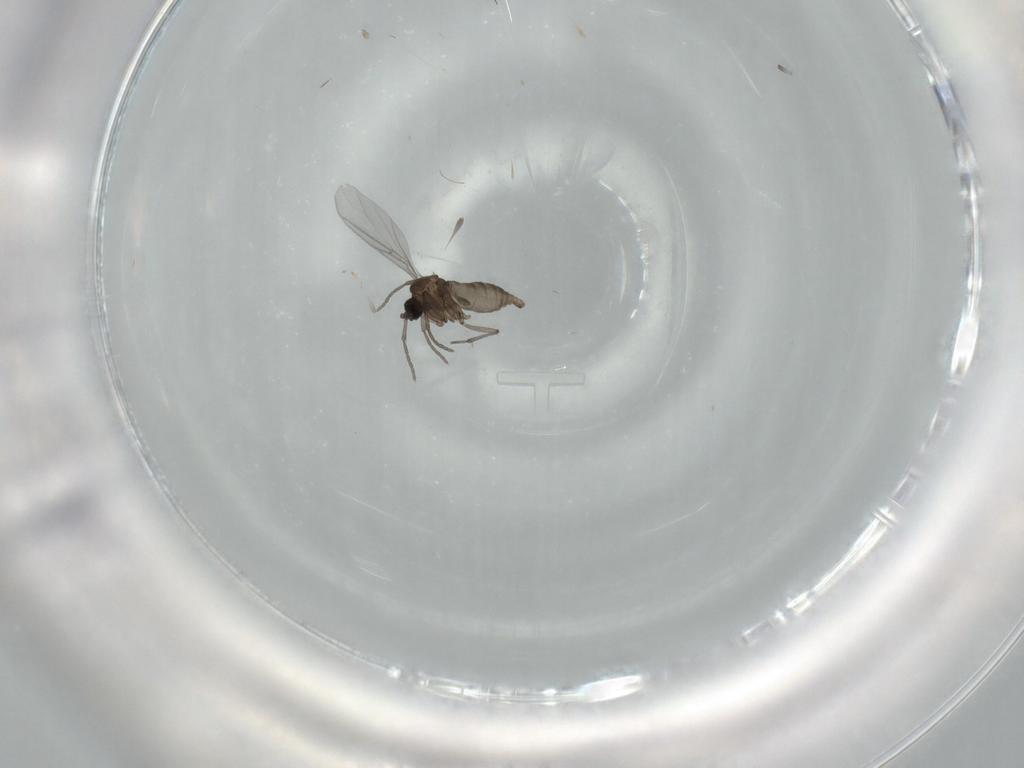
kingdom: Animalia
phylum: Arthropoda
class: Insecta
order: Diptera
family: Sciaridae
